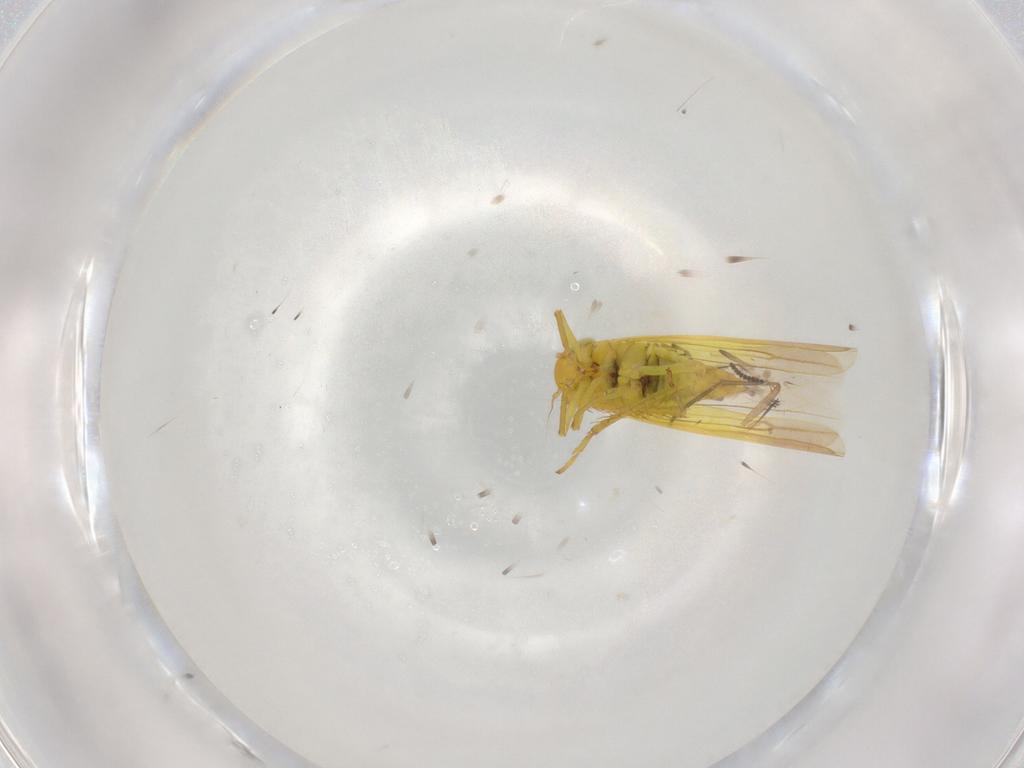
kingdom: Animalia
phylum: Arthropoda
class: Insecta
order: Hemiptera
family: Cicadellidae
